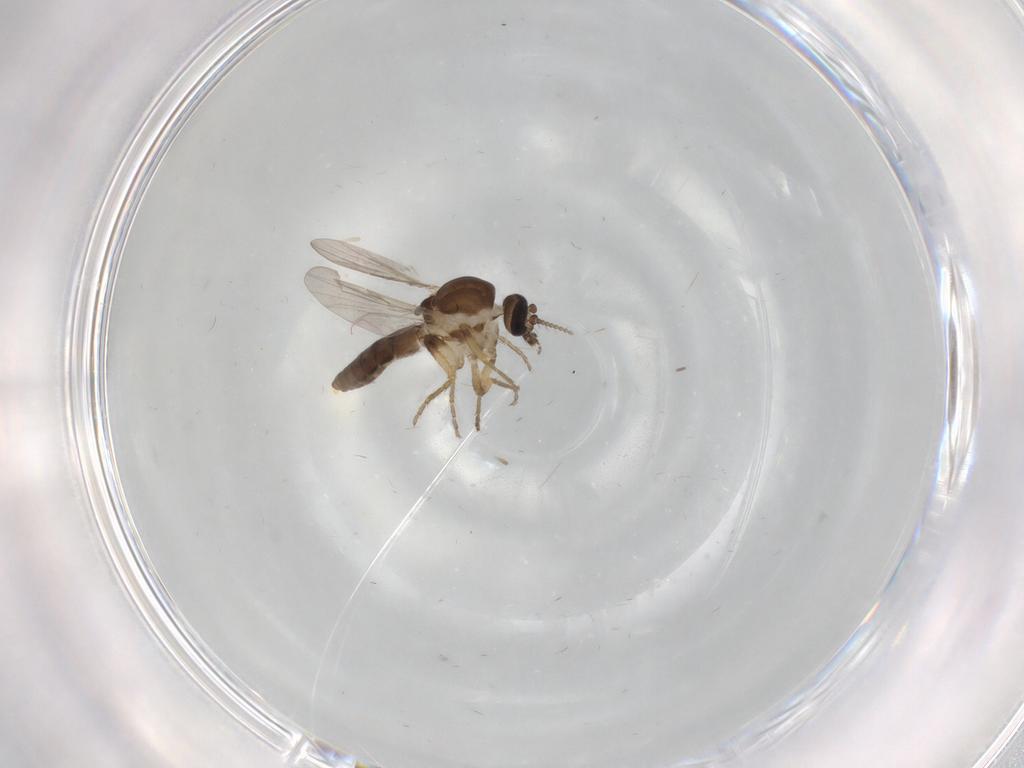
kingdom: Animalia
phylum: Arthropoda
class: Insecta
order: Diptera
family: Ceratopogonidae
